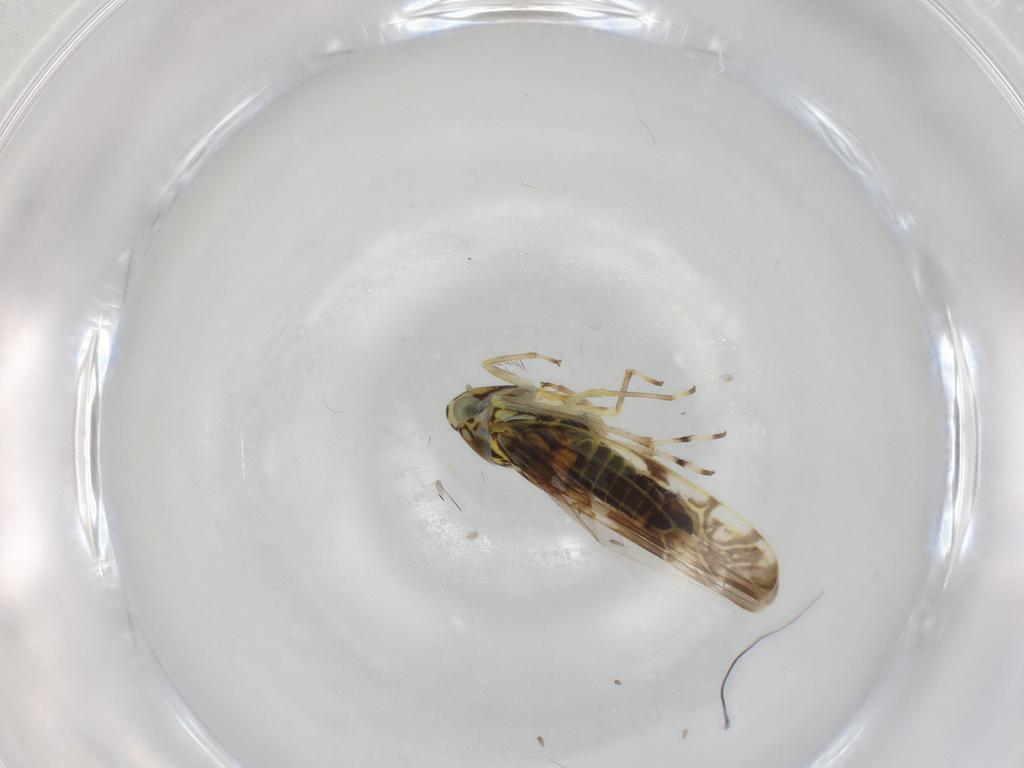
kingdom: Animalia
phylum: Arthropoda
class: Insecta
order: Hemiptera
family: Cicadellidae
